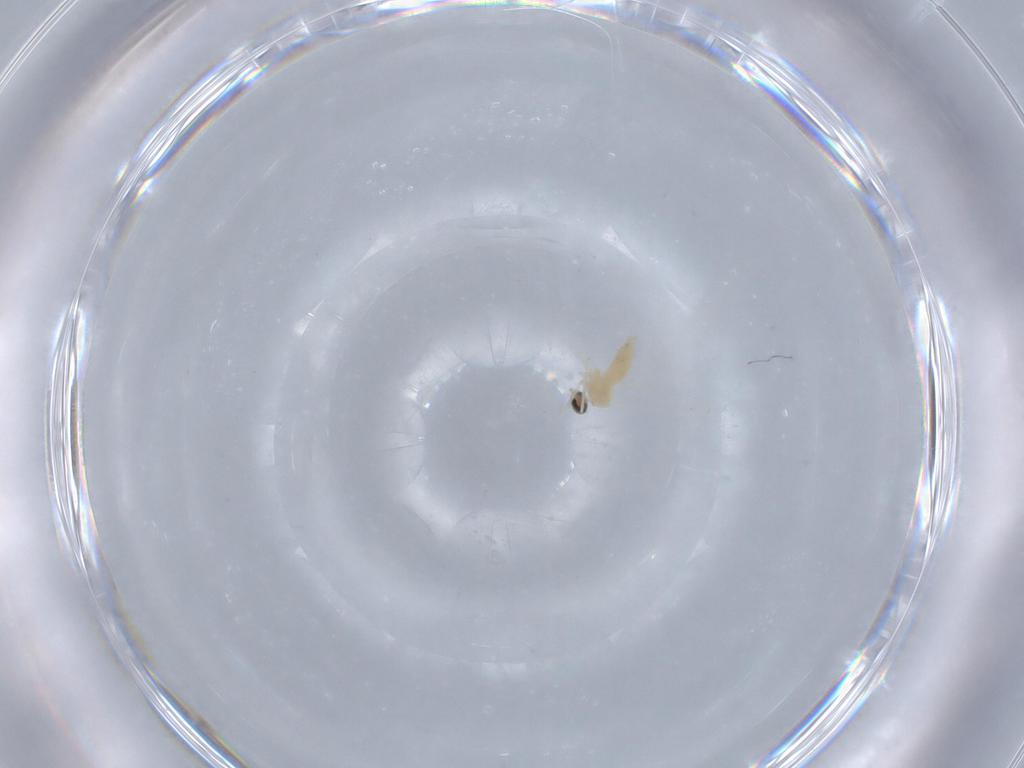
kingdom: Animalia
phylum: Arthropoda
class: Insecta
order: Diptera
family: Cecidomyiidae
